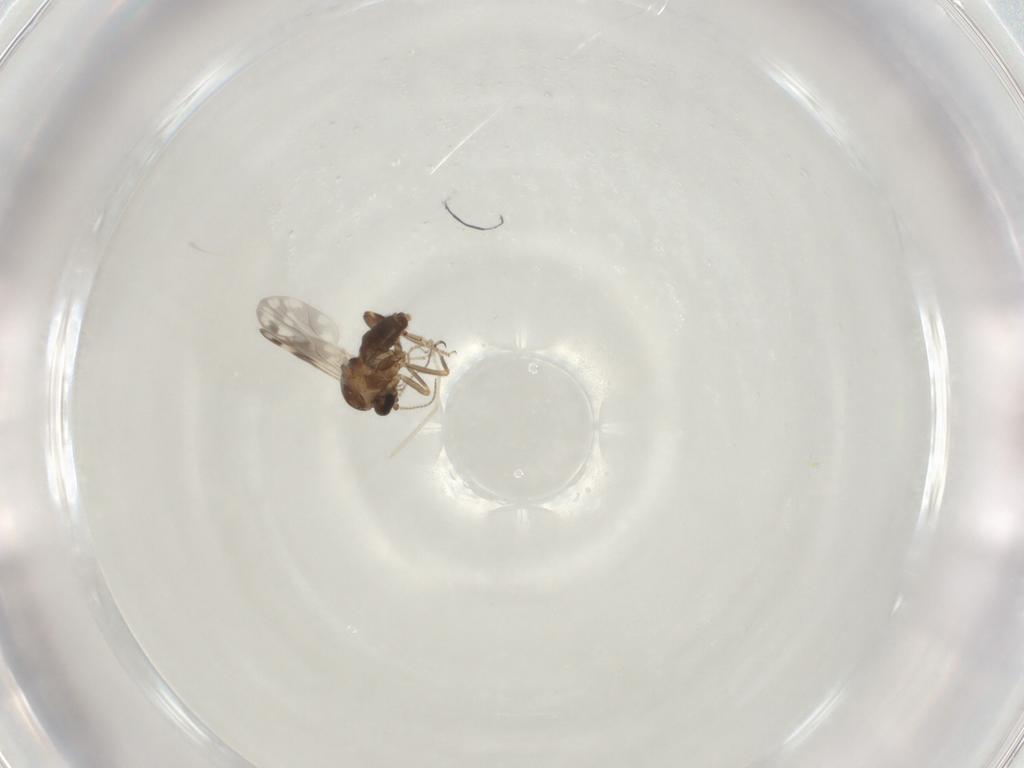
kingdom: Animalia
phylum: Arthropoda
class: Insecta
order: Diptera
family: Ceratopogonidae
